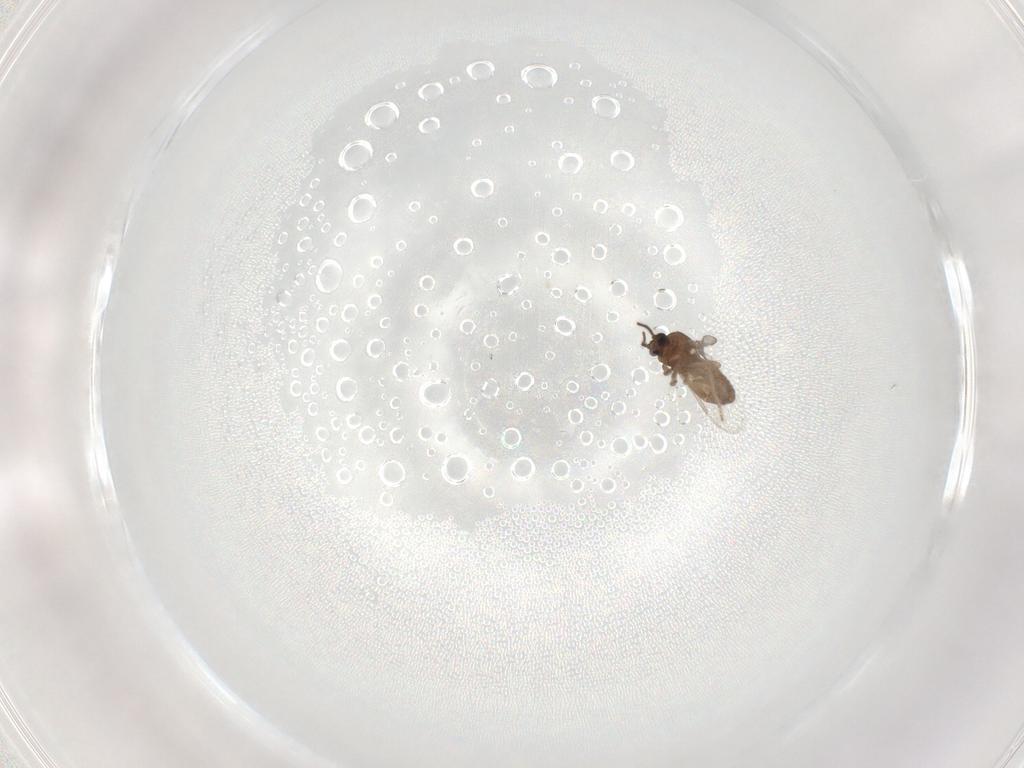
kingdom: Animalia
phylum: Arthropoda
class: Insecta
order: Diptera
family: Ceratopogonidae
